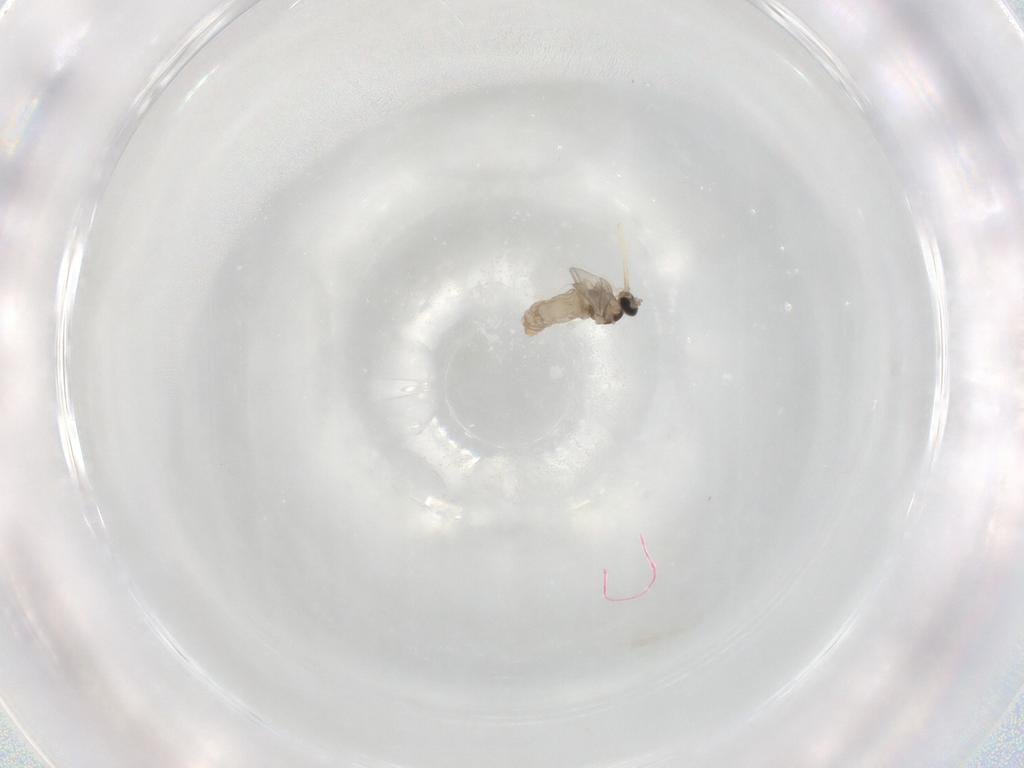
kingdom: Animalia
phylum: Arthropoda
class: Insecta
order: Diptera
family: Cecidomyiidae
